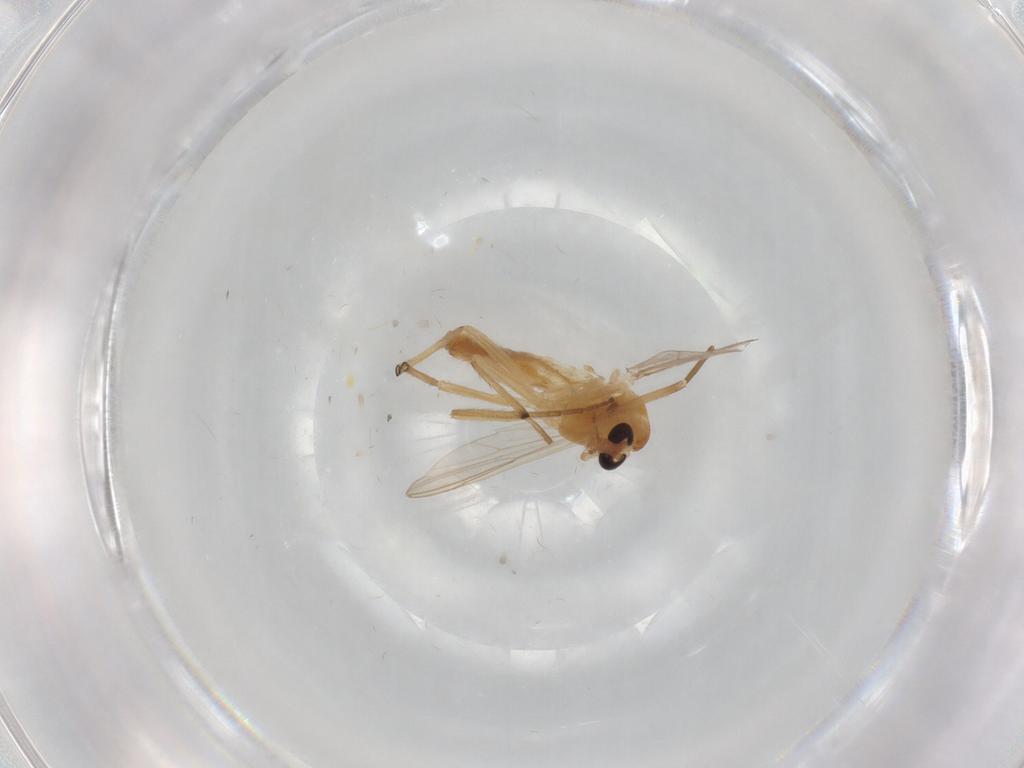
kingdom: Animalia
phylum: Arthropoda
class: Insecta
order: Diptera
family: Chironomidae
